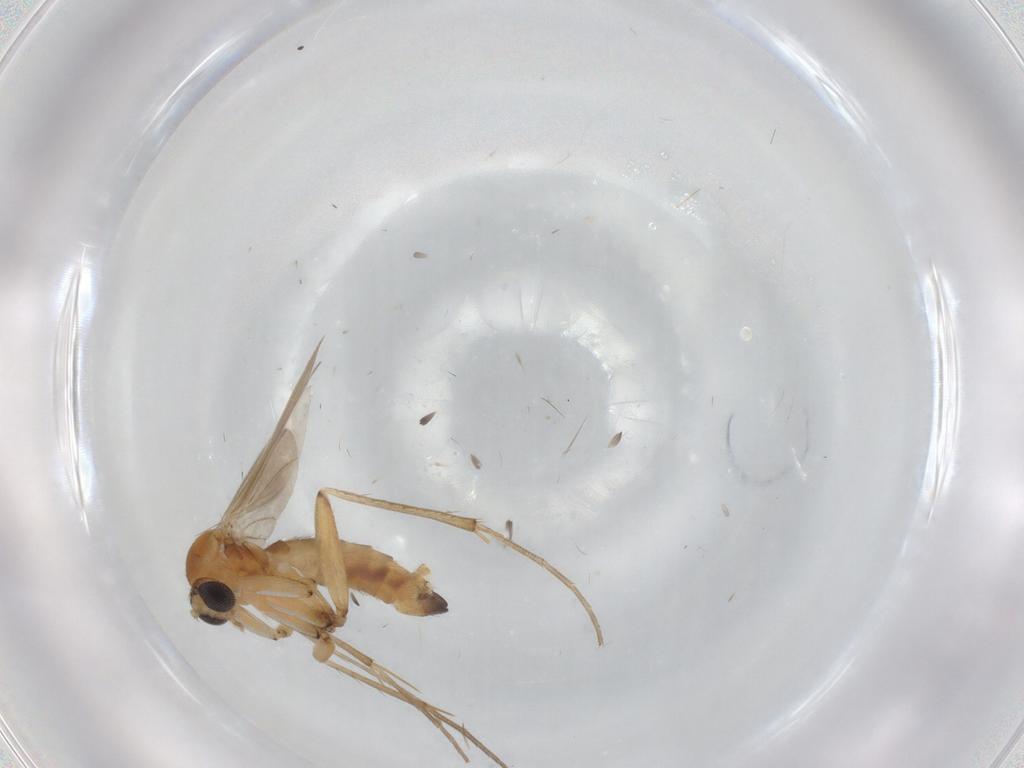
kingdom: Animalia
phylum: Arthropoda
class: Insecta
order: Diptera
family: Mycetophilidae
